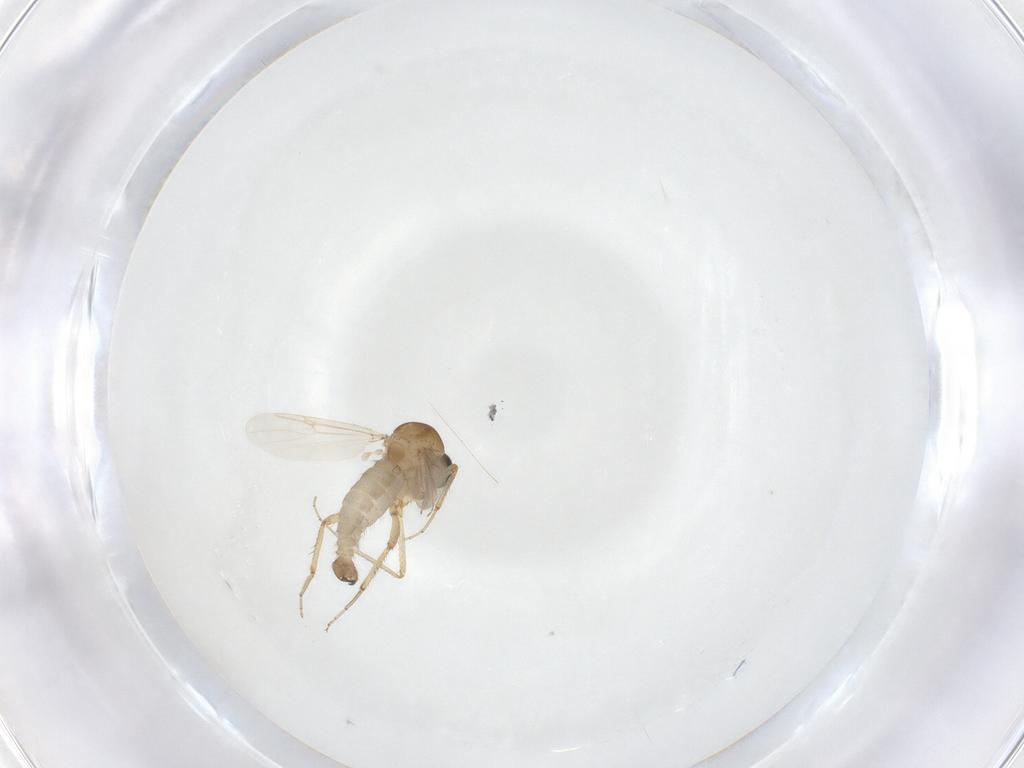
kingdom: Animalia
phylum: Arthropoda
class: Insecta
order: Diptera
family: Ceratopogonidae
